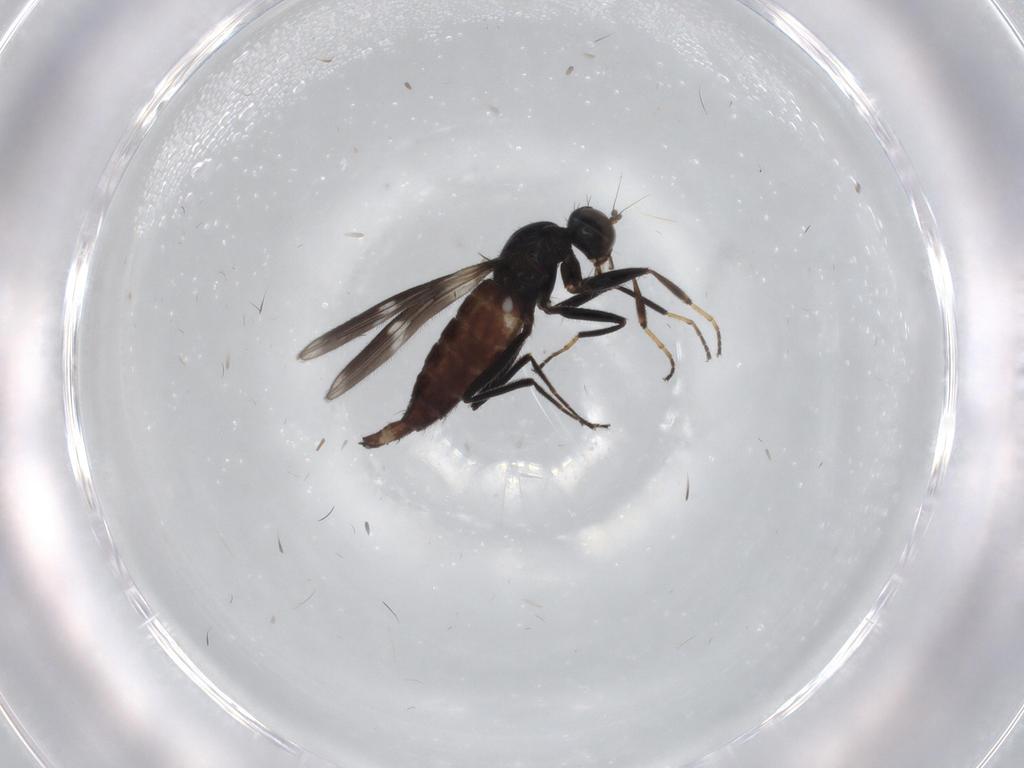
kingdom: Animalia
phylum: Arthropoda
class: Insecta
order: Diptera
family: Hybotidae
